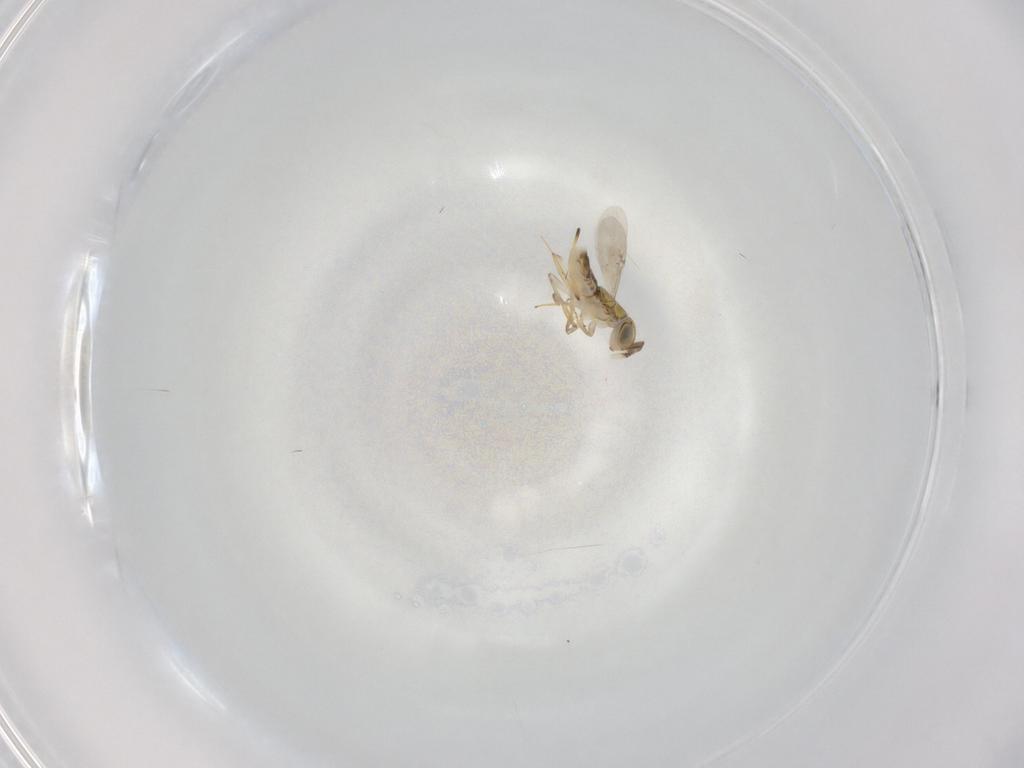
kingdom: Animalia
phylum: Arthropoda
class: Insecta
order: Hymenoptera
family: Encyrtidae
